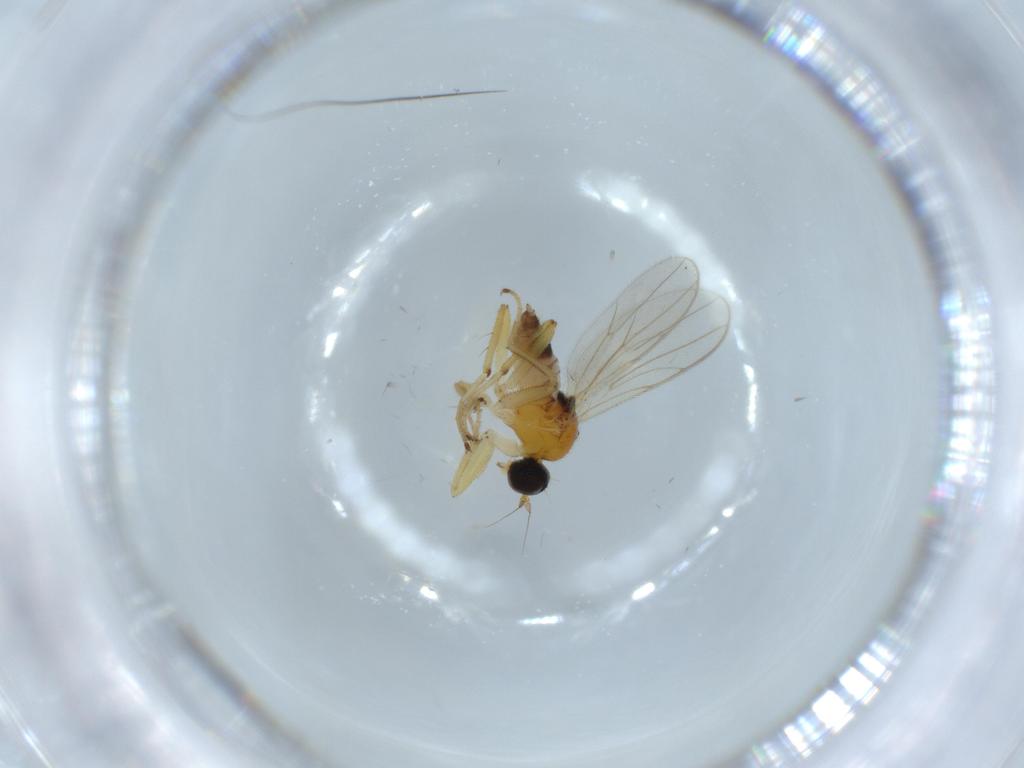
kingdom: Animalia
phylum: Arthropoda
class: Insecta
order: Diptera
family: Hybotidae
